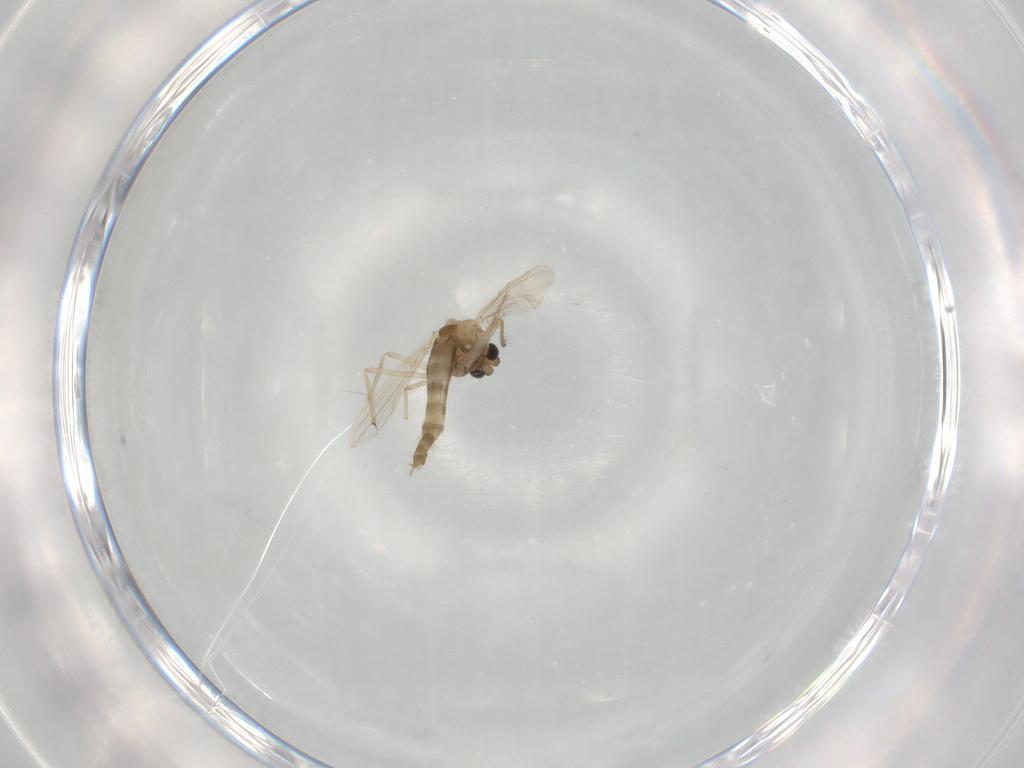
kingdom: Animalia
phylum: Arthropoda
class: Insecta
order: Diptera
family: Chironomidae
